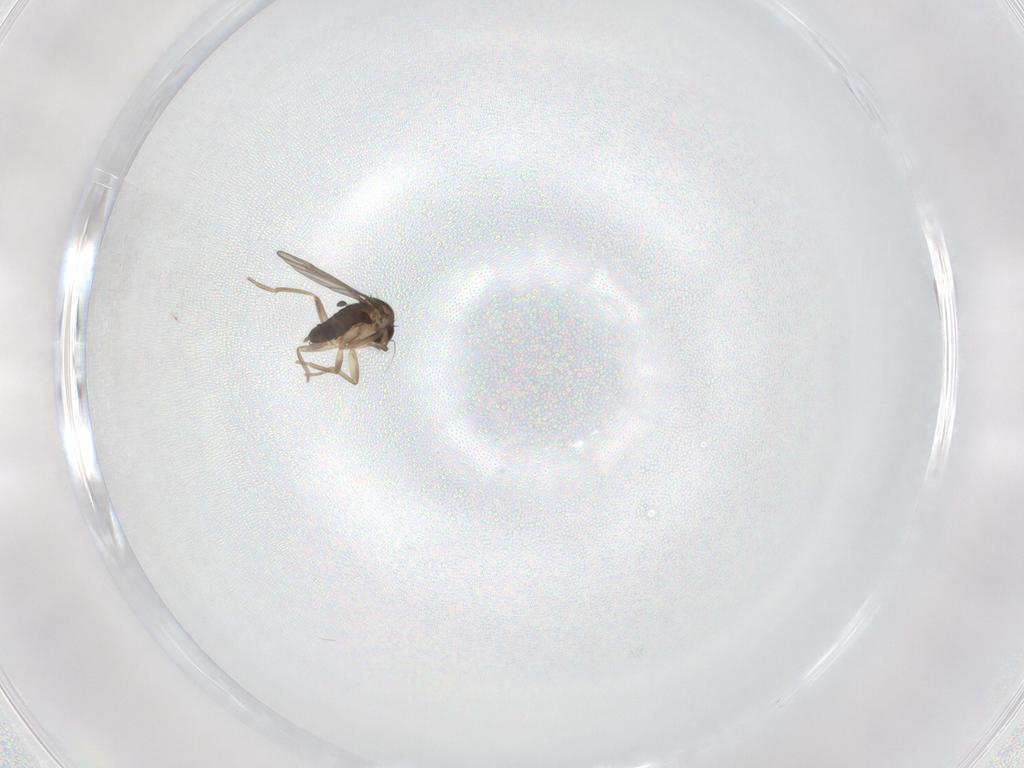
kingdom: Animalia
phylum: Arthropoda
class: Insecta
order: Diptera
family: Phoridae
